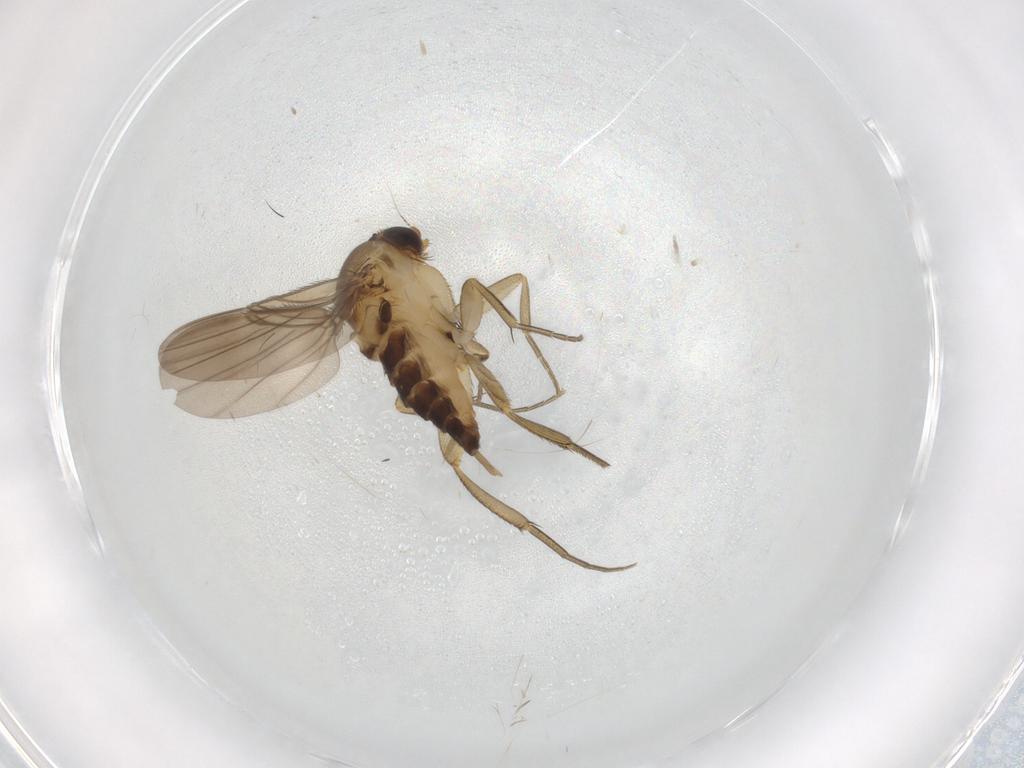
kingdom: Animalia
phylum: Arthropoda
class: Insecta
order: Diptera
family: Phoridae
